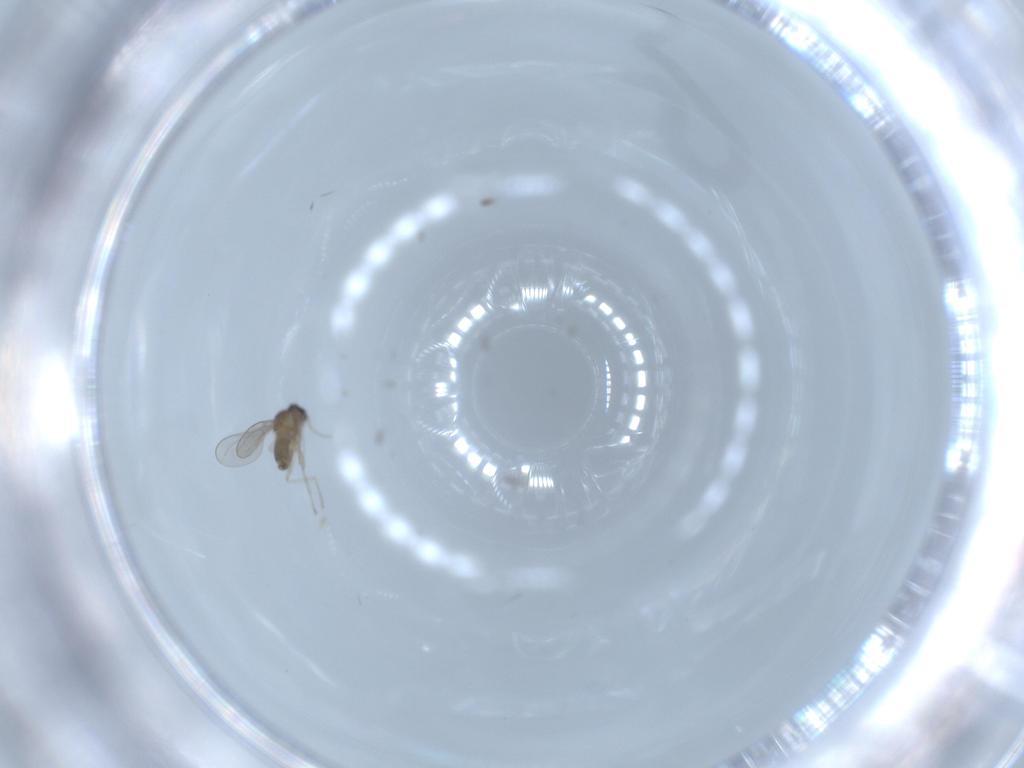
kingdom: Animalia
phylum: Arthropoda
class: Insecta
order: Diptera
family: Cecidomyiidae
